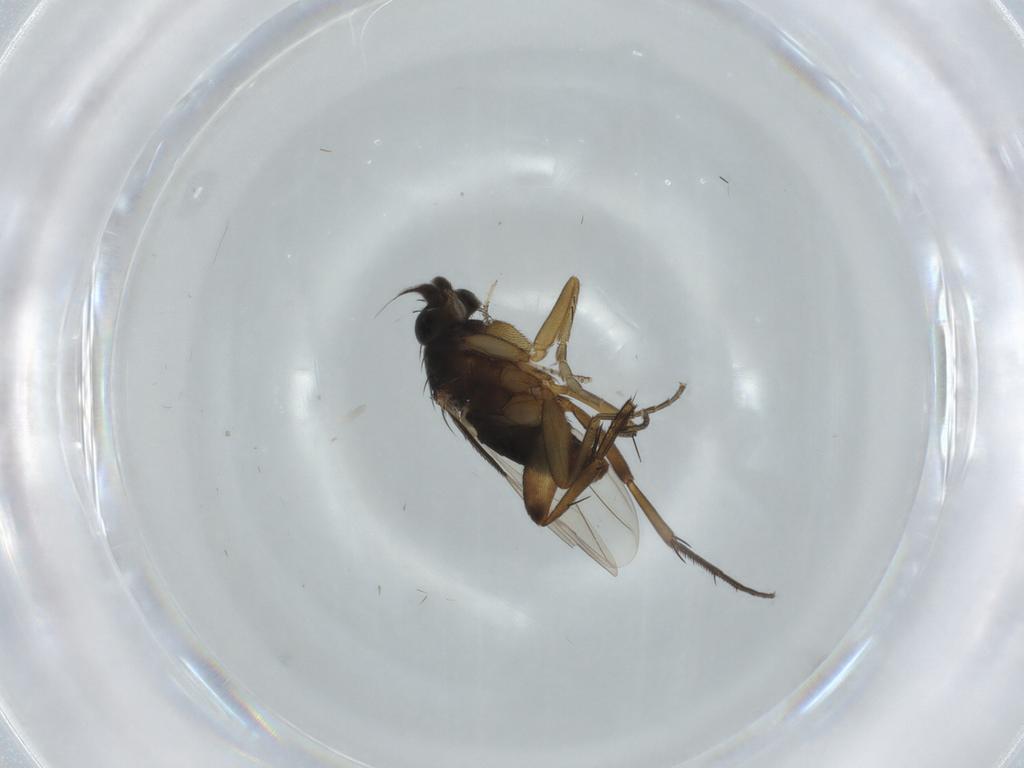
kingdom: Animalia
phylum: Arthropoda
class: Insecta
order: Diptera
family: Phoridae
